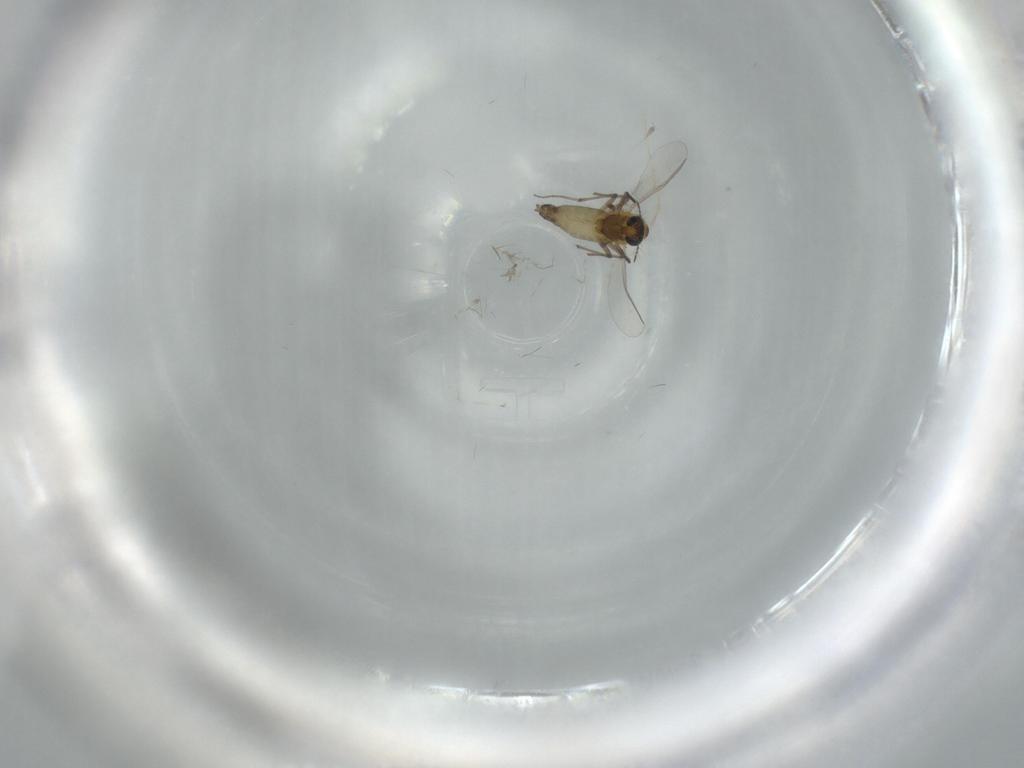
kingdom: Animalia
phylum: Arthropoda
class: Insecta
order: Diptera
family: Chironomidae
